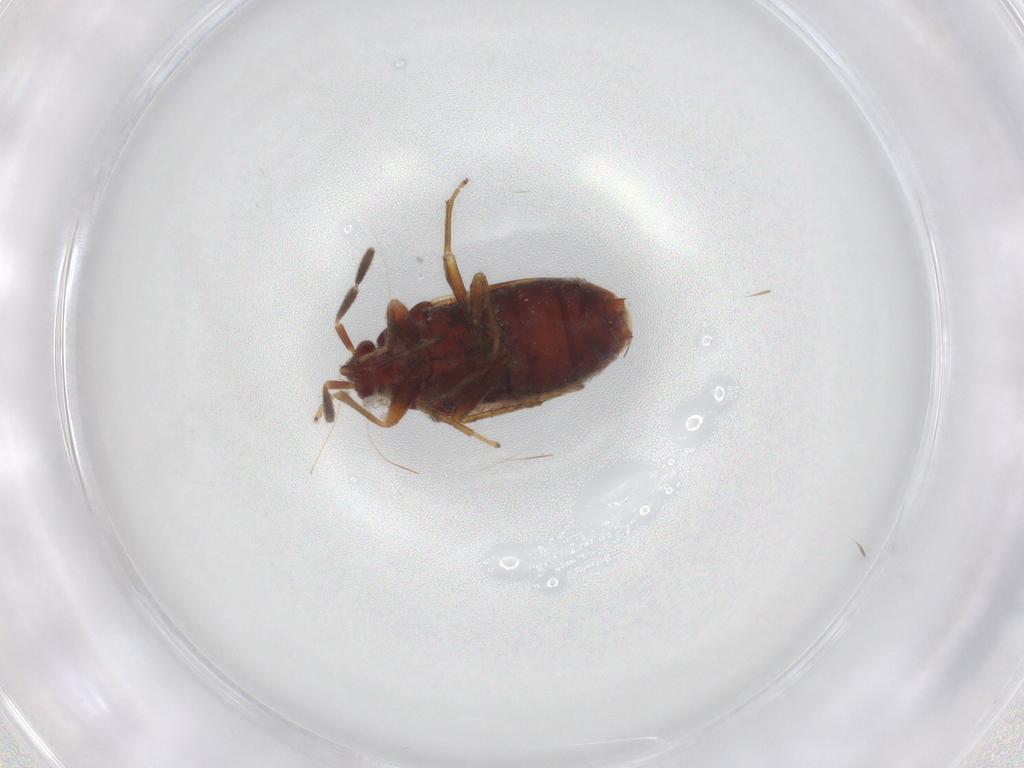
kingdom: Animalia
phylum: Arthropoda
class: Insecta
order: Hemiptera
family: Rhyparochromidae
